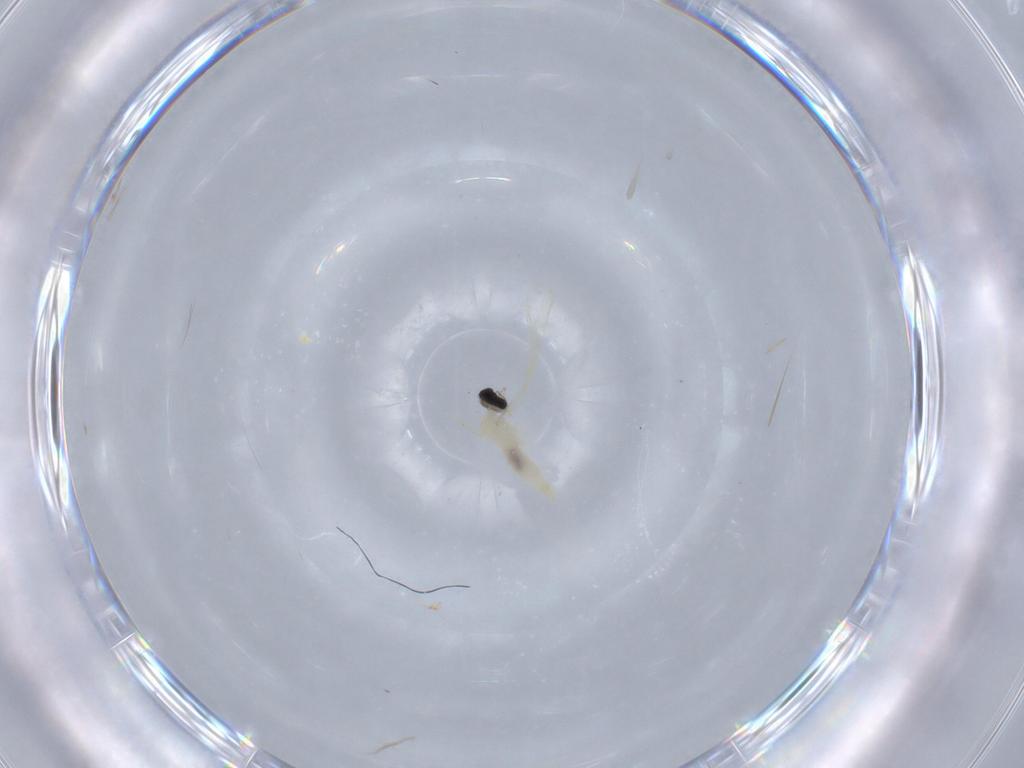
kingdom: Animalia
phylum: Arthropoda
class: Insecta
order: Diptera
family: Cecidomyiidae
